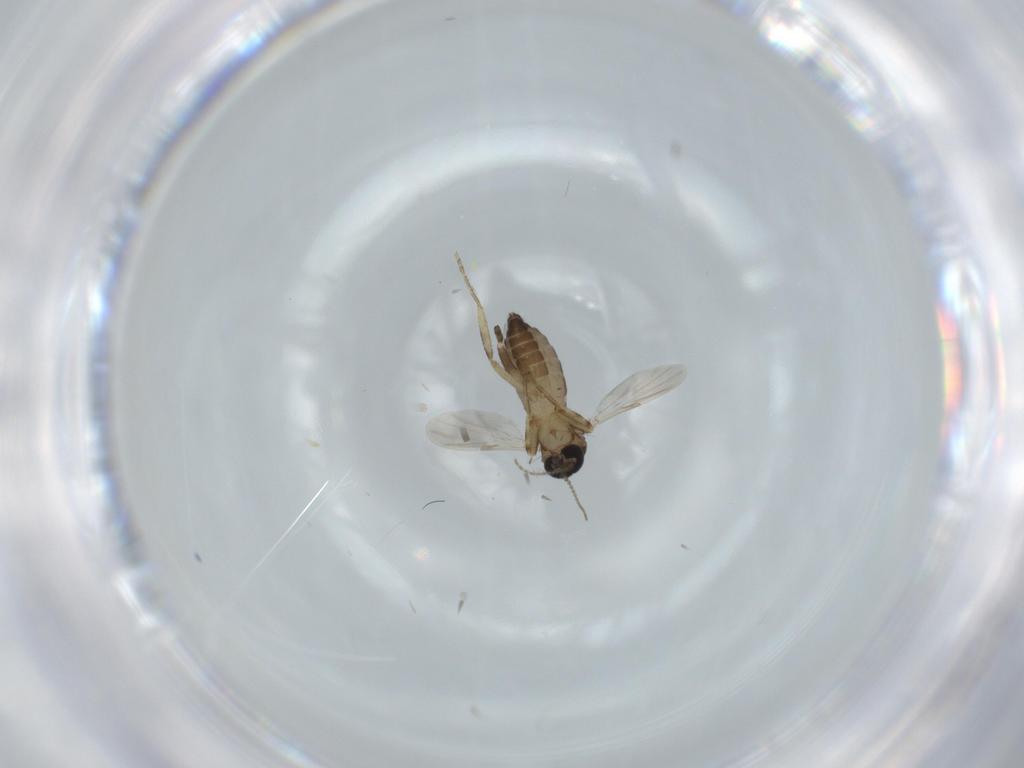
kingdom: Animalia
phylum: Arthropoda
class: Insecta
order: Diptera
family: Ceratopogonidae
